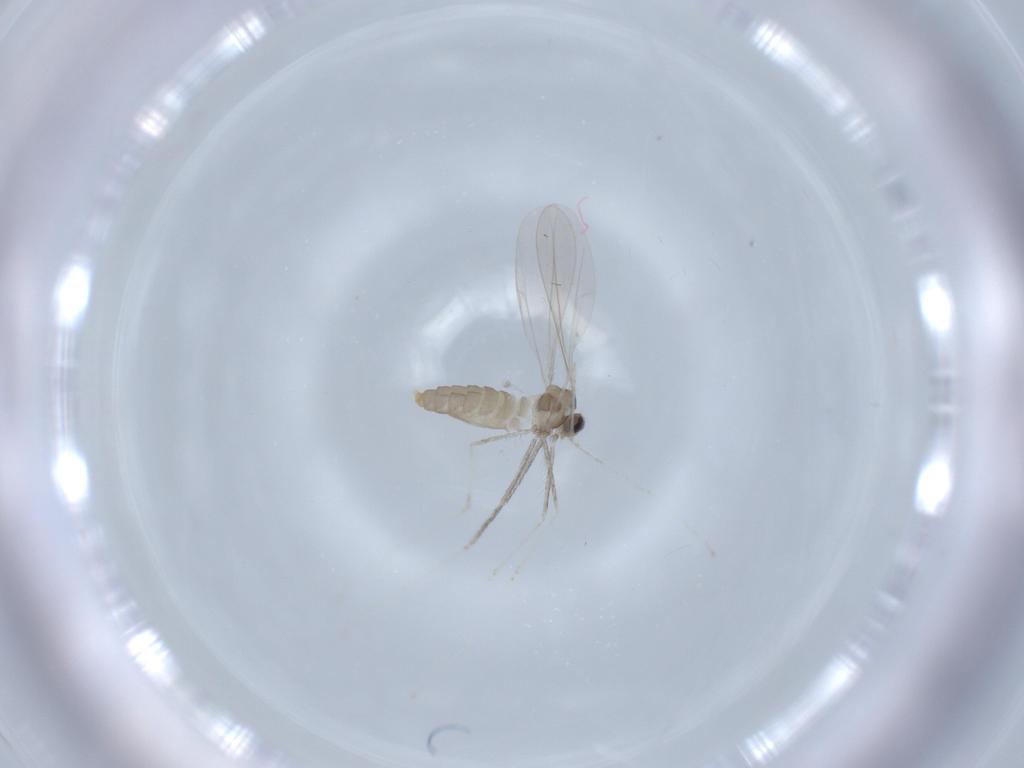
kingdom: Animalia
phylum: Arthropoda
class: Insecta
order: Diptera
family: Cecidomyiidae
